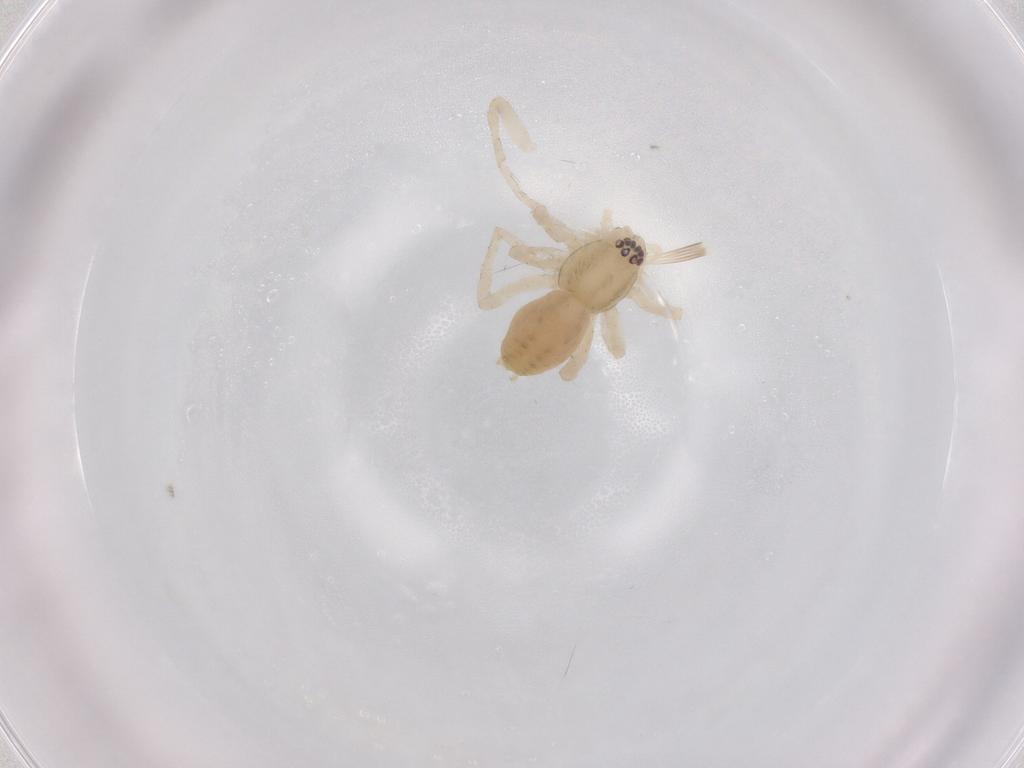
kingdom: Animalia
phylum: Arthropoda
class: Arachnida
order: Araneae
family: Anyphaenidae
